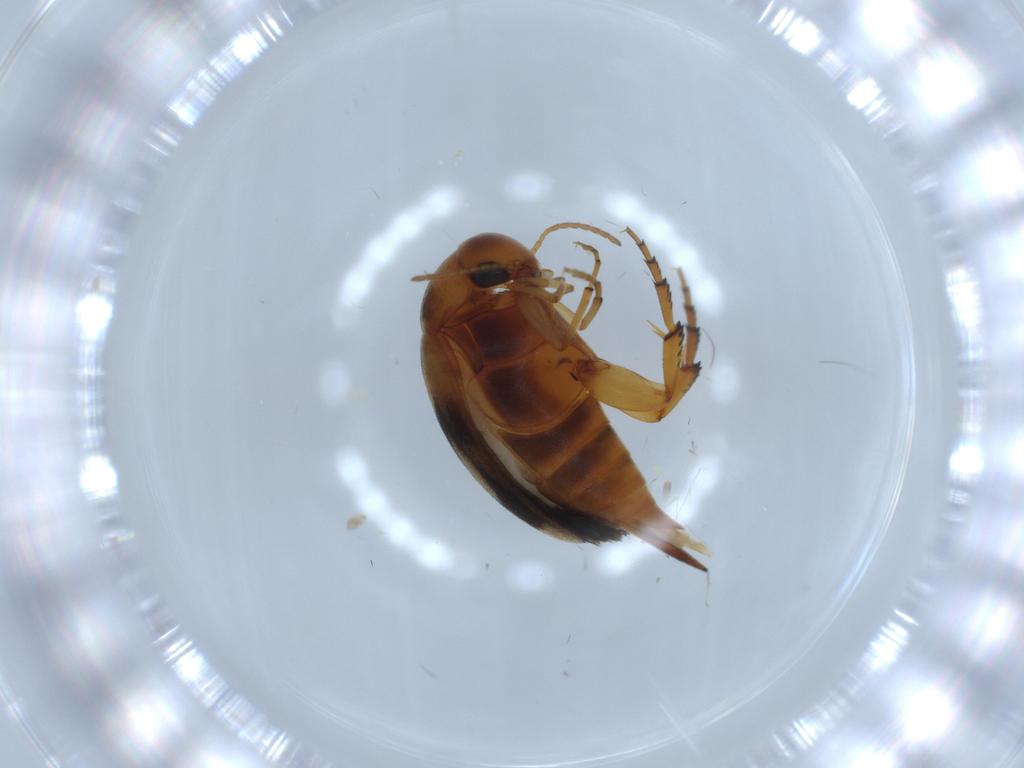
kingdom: Animalia
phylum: Arthropoda
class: Insecta
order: Coleoptera
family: Mordellidae
